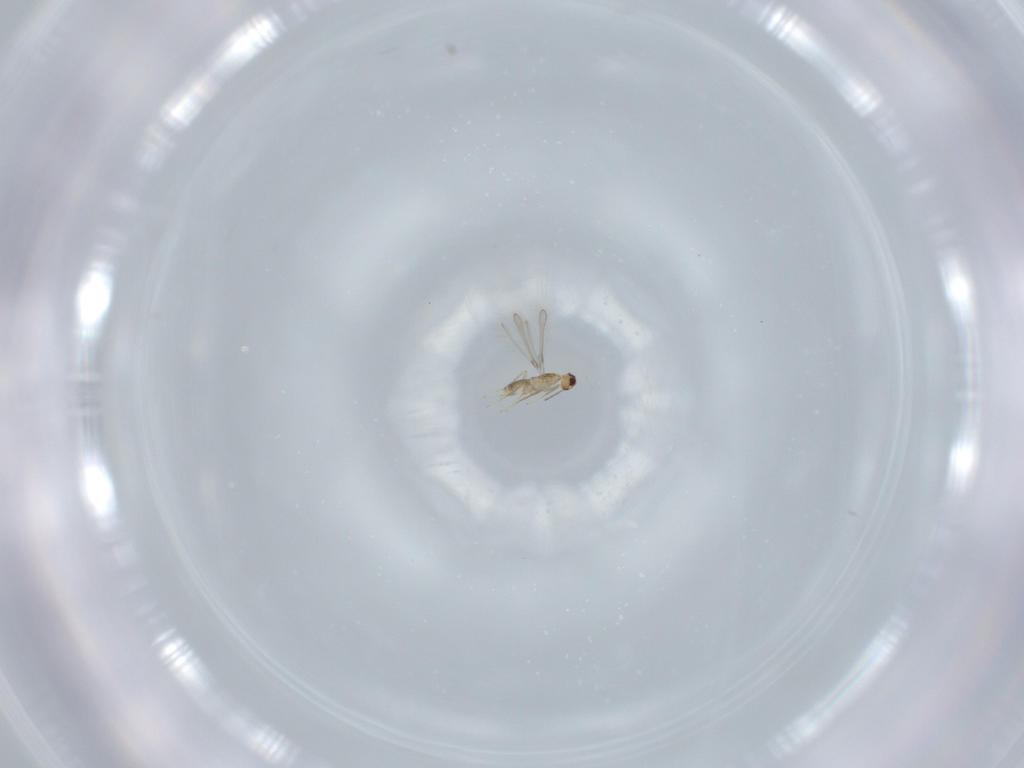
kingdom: Animalia
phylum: Arthropoda
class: Insecta
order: Hymenoptera
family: Mymaridae
